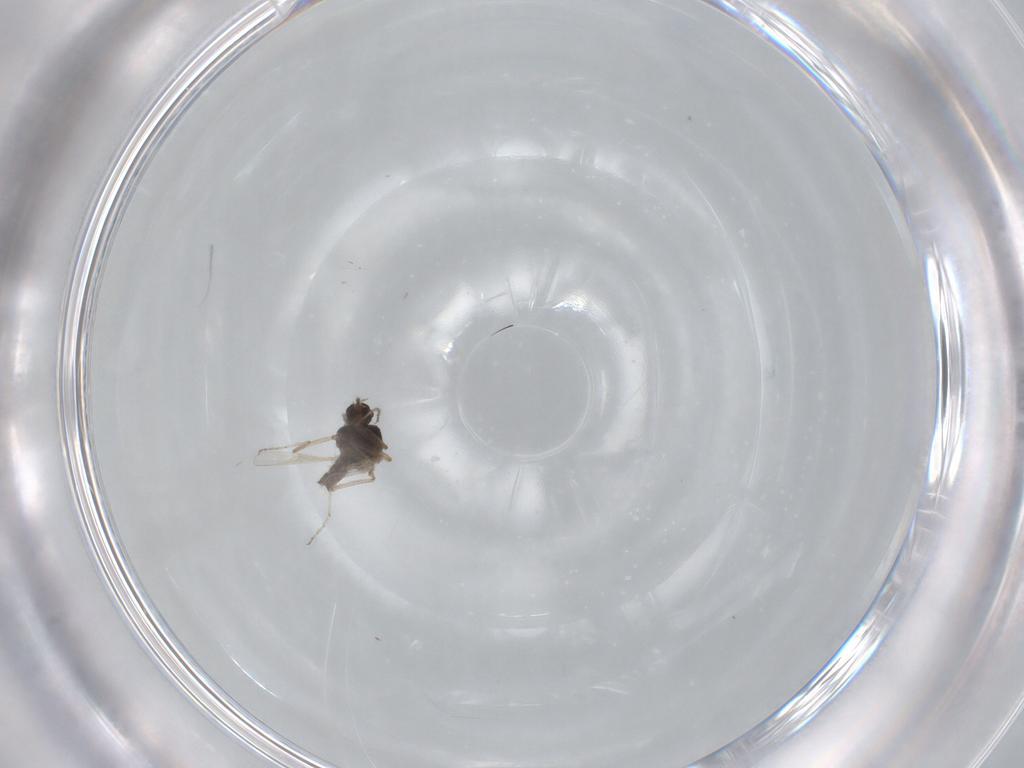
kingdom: Animalia
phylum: Arthropoda
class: Insecta
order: Diptera
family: Ceratopogonidae
